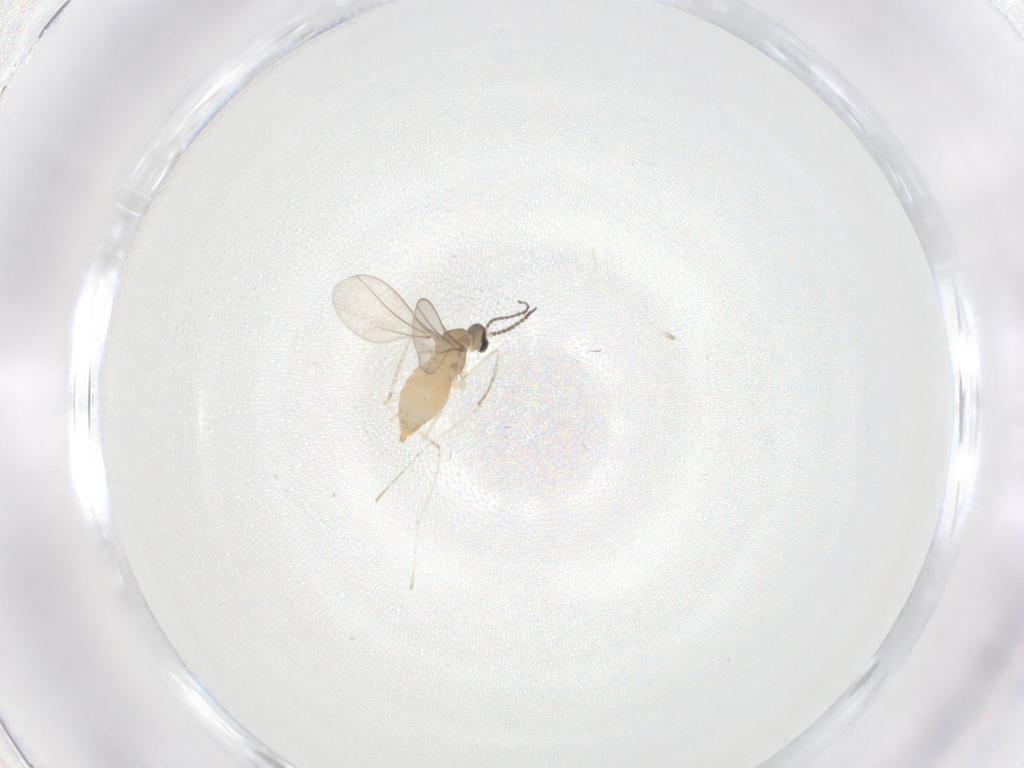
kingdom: Animalia
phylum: Arthropoda
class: Insecta
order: Diptera
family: Cecidomyiidae
